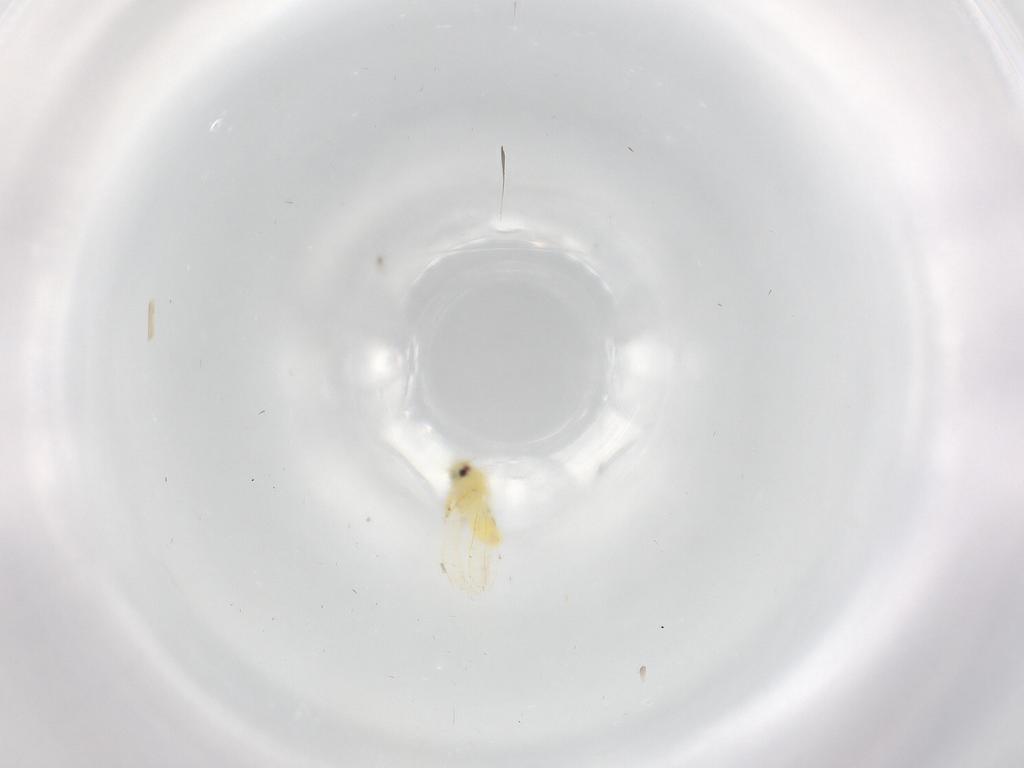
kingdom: Animalia
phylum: Arthropoda
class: Insecta
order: Hemiptera
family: Aleyrodidae
